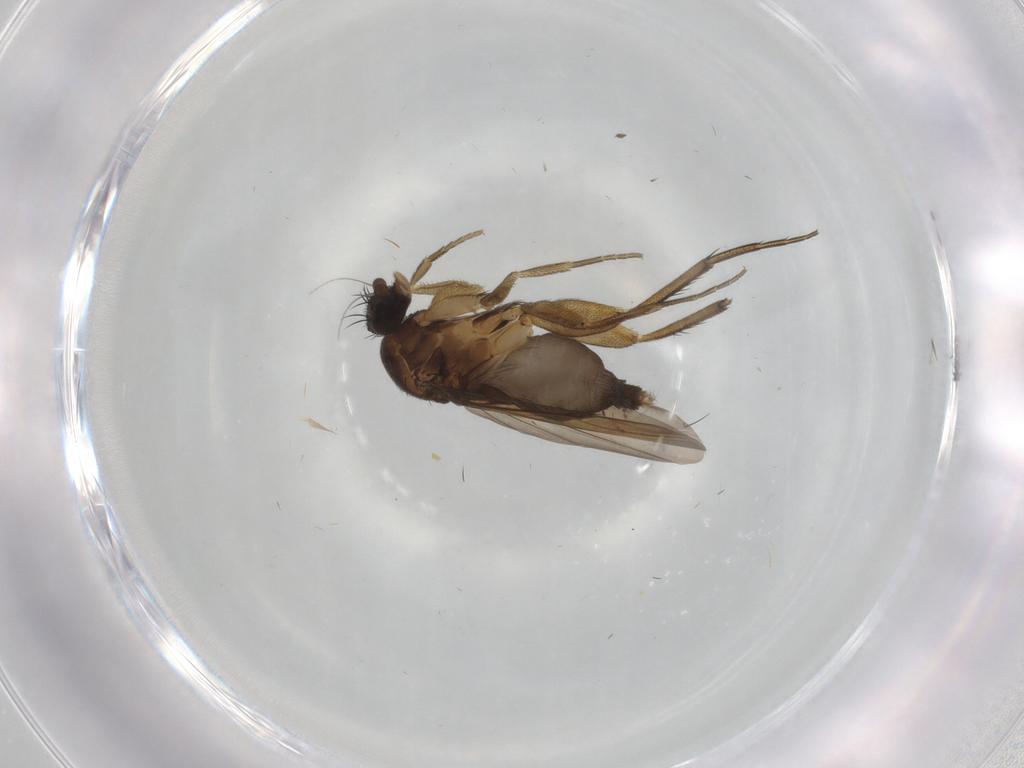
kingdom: Animalia
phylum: Arthropoda
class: Insecta
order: Diptera
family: Phoridae
